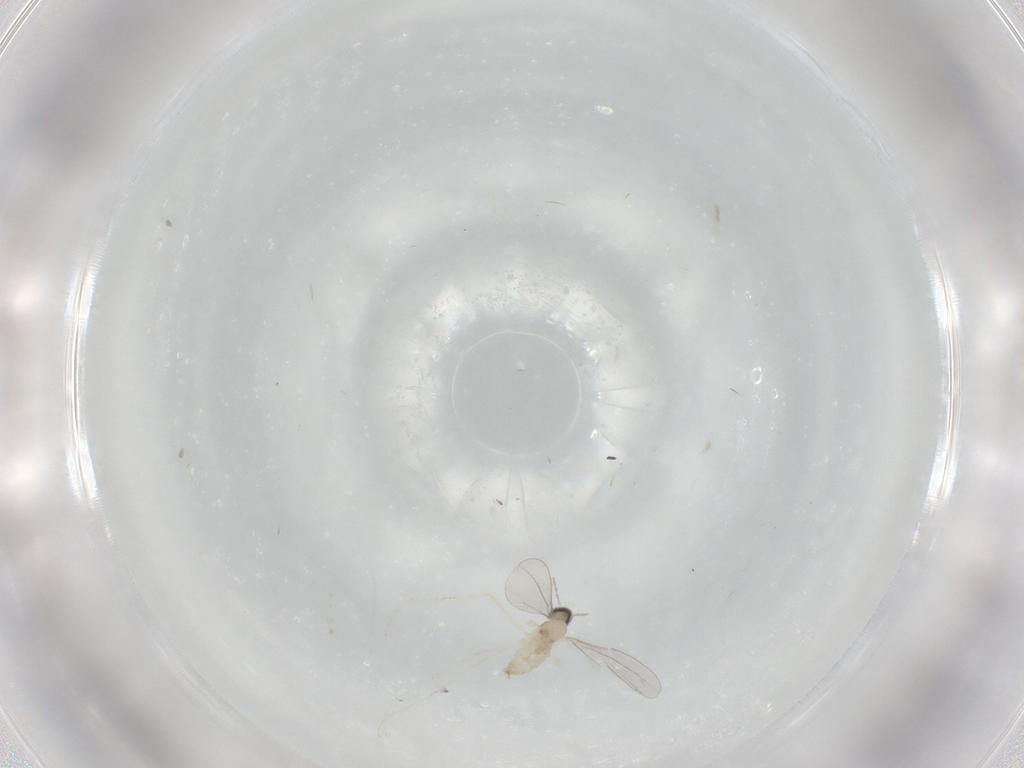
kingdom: Animalia
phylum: Arthropoda
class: Insecta
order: Diptera
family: Cecidomyiidae
